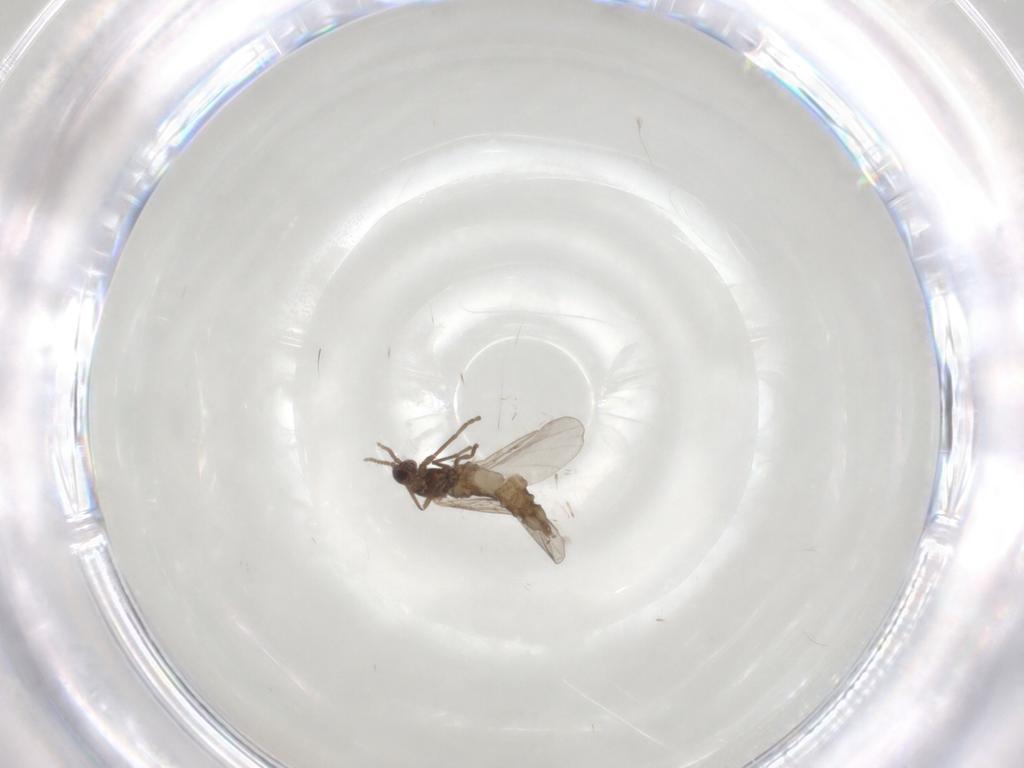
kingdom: Animalia
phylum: Arthropoda
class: Insecta
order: Diptera
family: Cecidomyiidae
